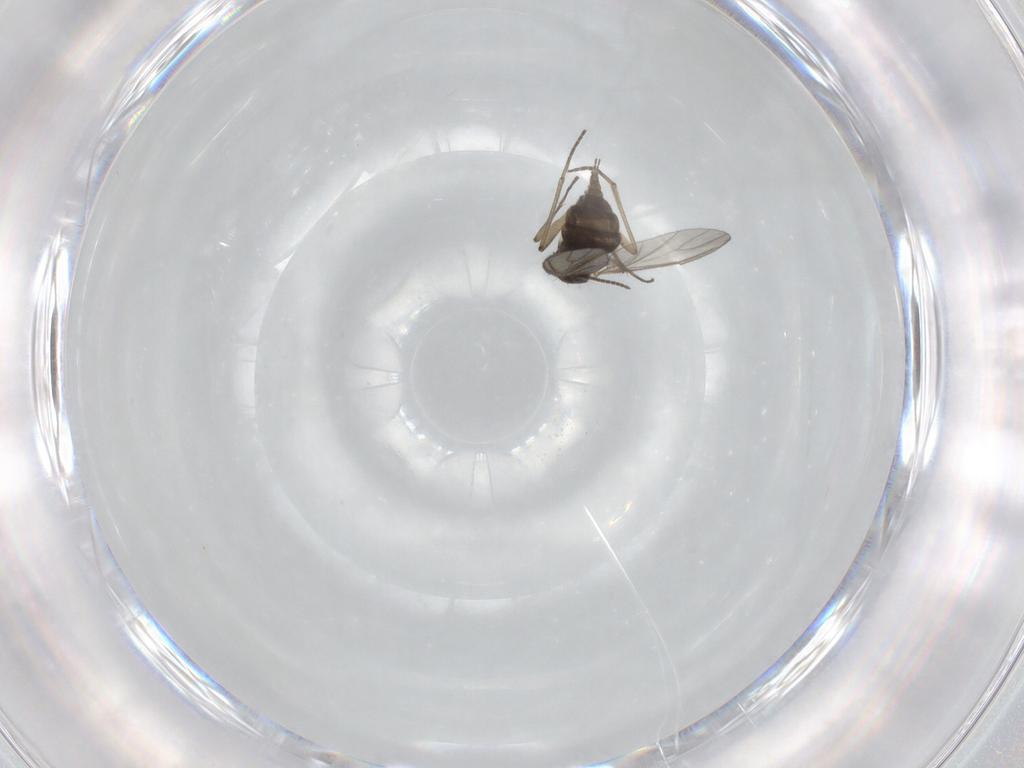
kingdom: Animalia
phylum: Arthropoda
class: Insecta
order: Diptera
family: Sciaridae
